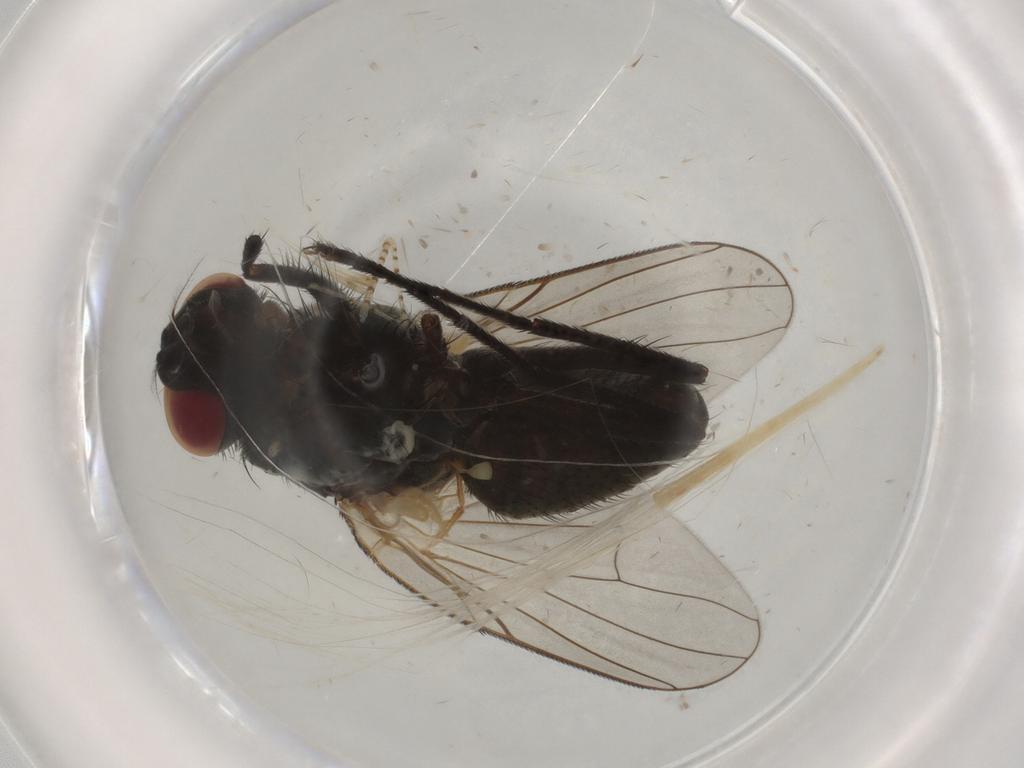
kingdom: Animalia
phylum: Arthropoda
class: Insecta
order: Diptera
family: Muscidae
